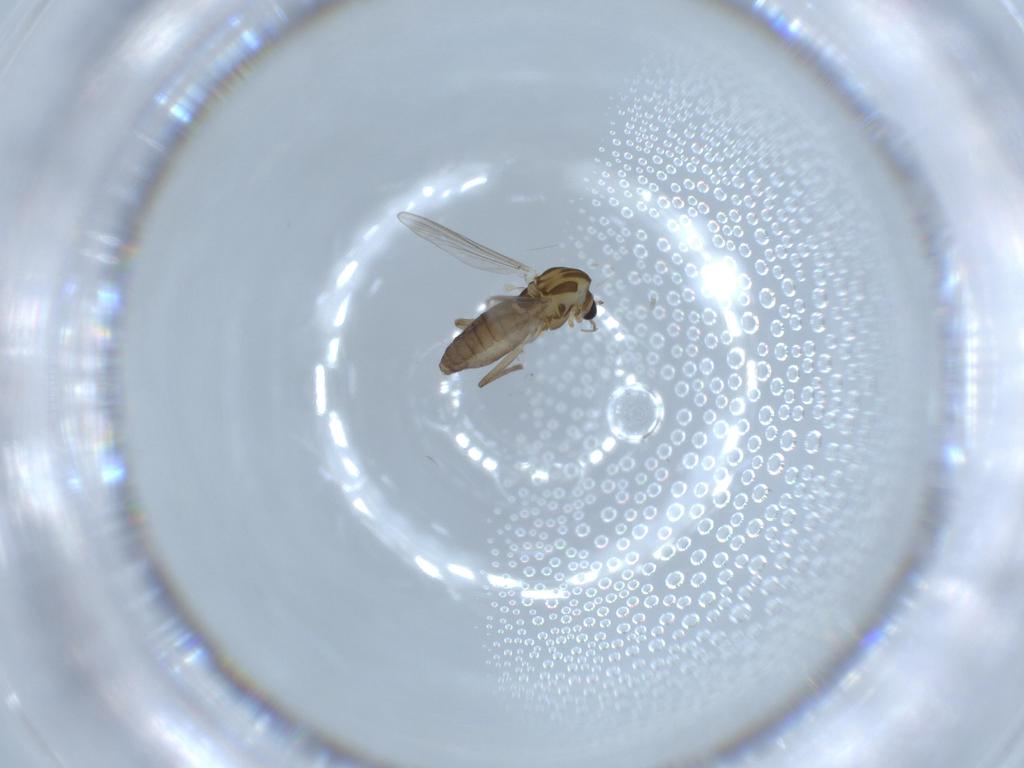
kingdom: Animalia
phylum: Arthropoda
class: Insecta
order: Diptera
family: Chironomidae
